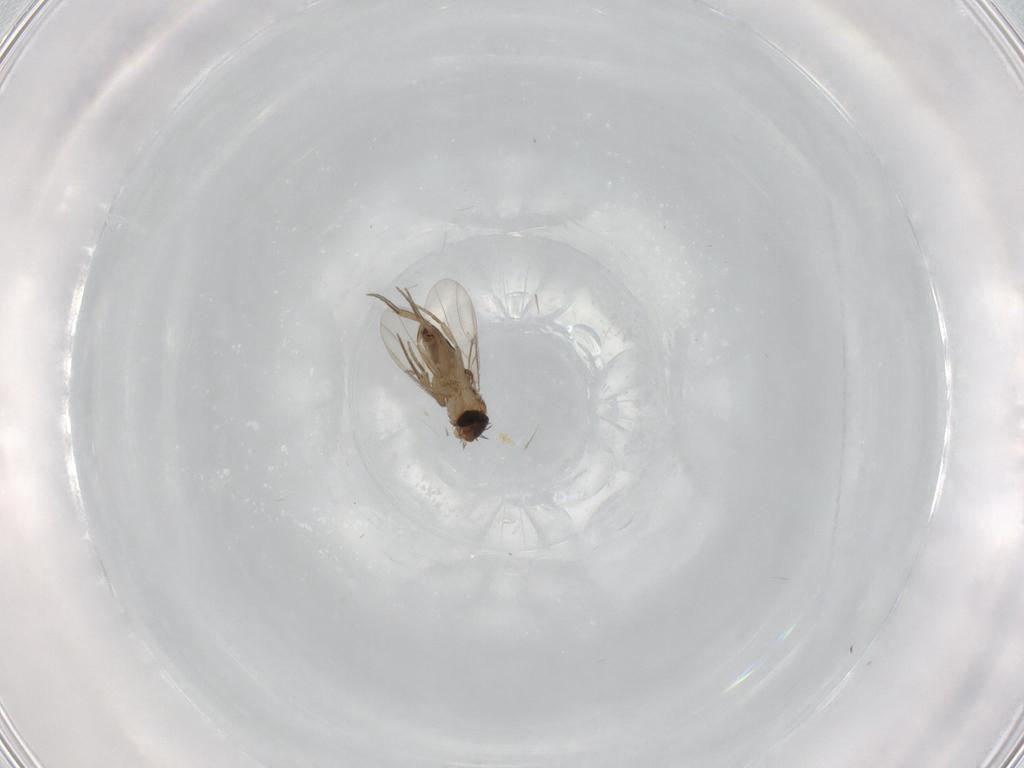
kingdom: Animalia
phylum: Arthropoda
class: Insecta
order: Diptera
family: Phoridae
